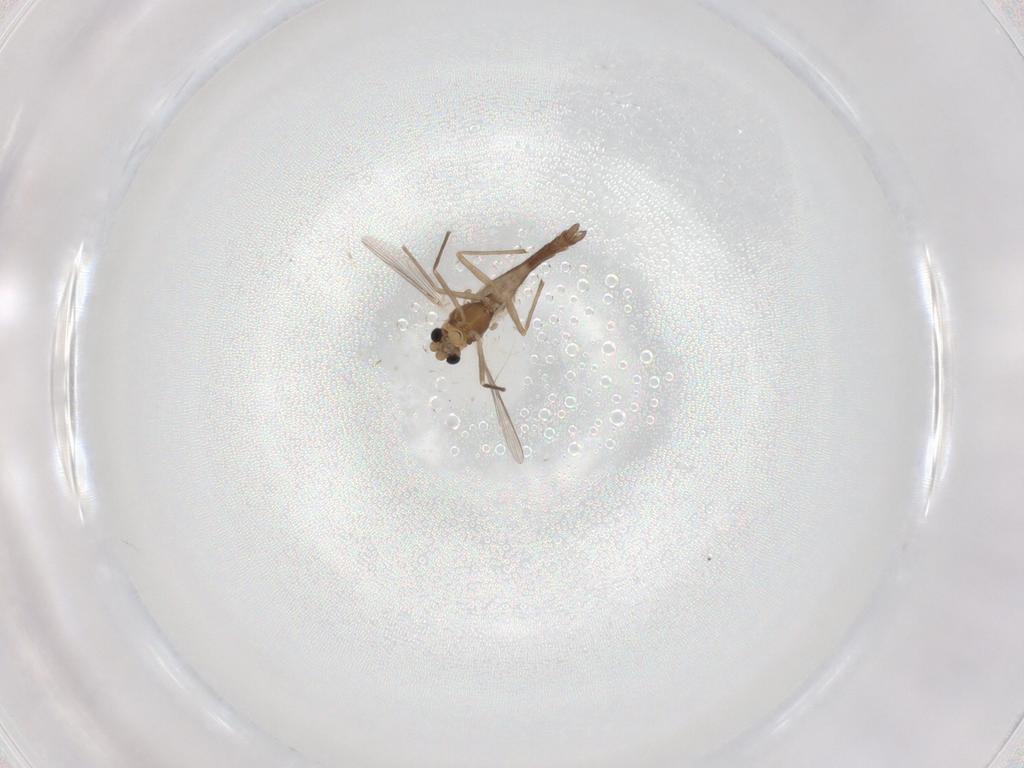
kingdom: Animalia
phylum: Arthropoda
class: Insecta
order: Diptera
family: Chironomidae
